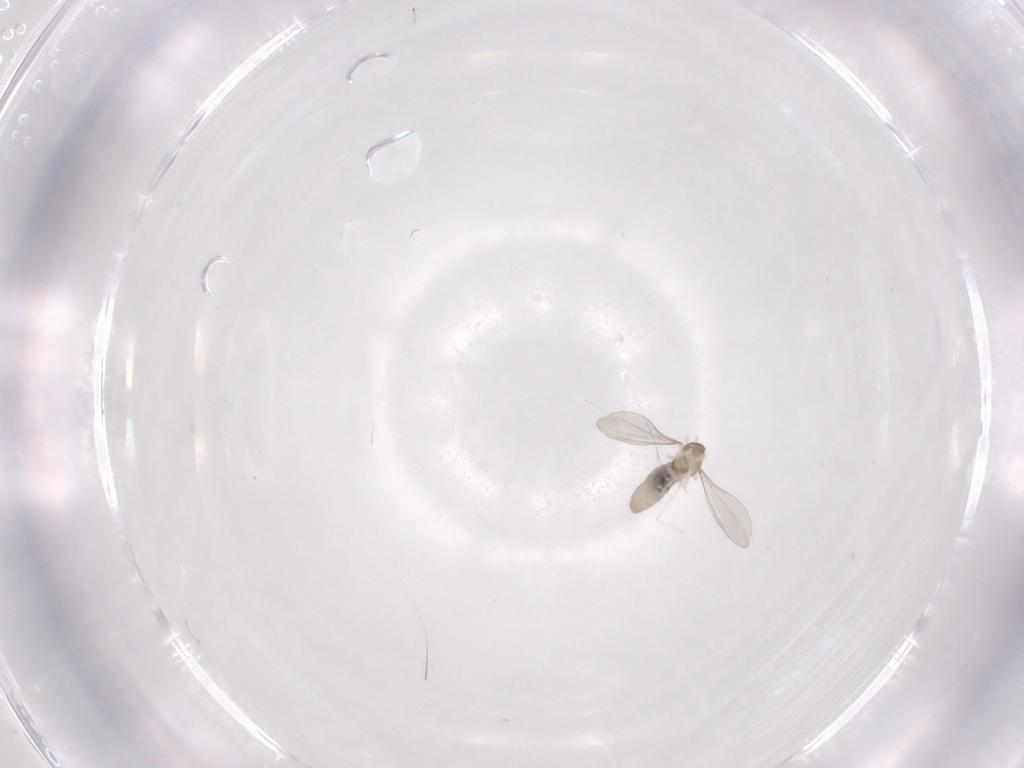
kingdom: Animalia
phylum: Arthropoda
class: Insecta
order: Diptera
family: Cecidomyiidae
